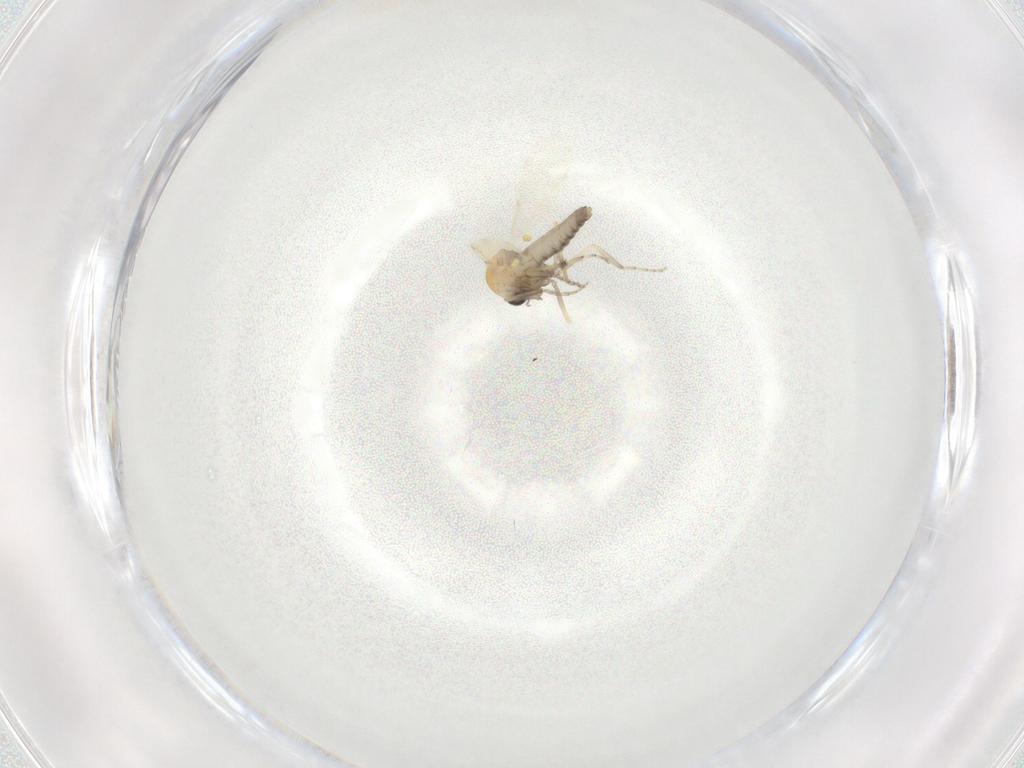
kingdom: Animalia
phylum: Arthropoda
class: Insecta
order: Diptera
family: Ceratopogonidae
